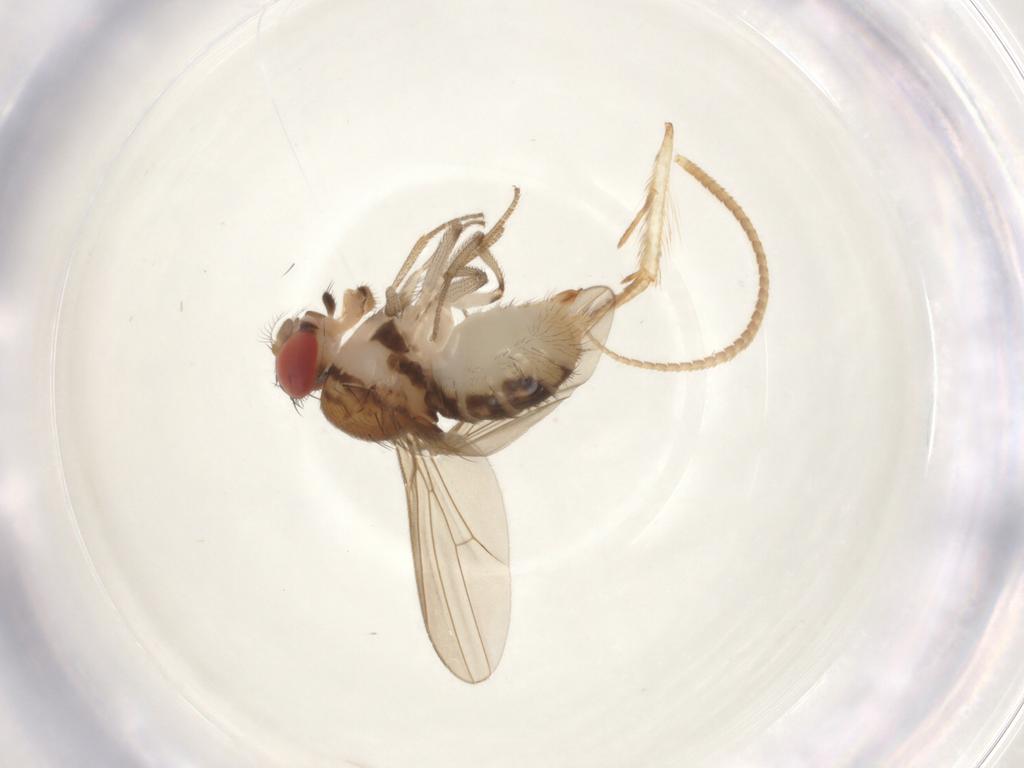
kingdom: Animalia
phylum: Arthropoda
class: Insecta
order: Diptera
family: Drosophilidae
